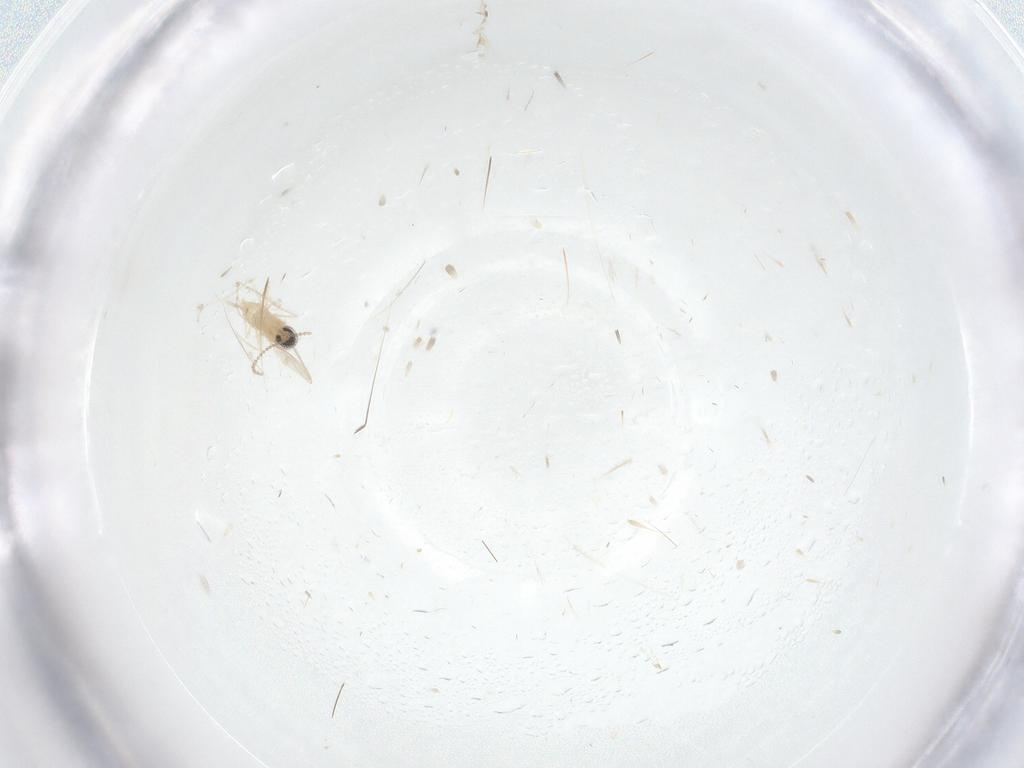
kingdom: Animalia
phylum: Arthropoda
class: Insecta
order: Diptera
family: Cecidomyiidae
